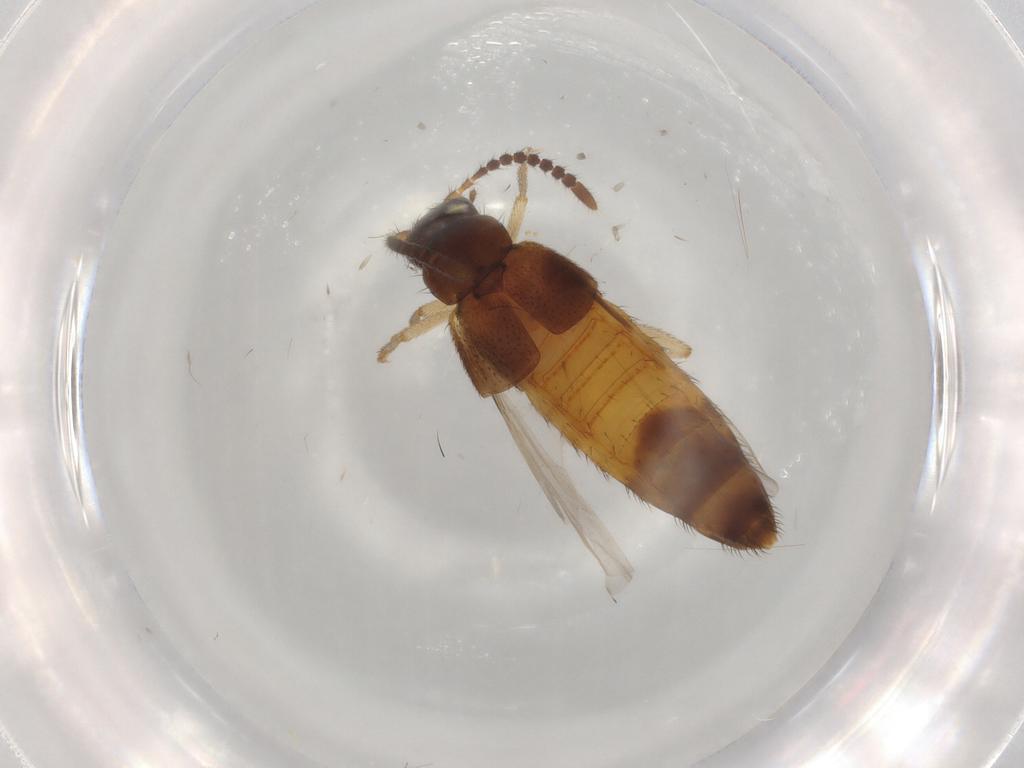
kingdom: Animalia
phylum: Arthropoda
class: Insecta
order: Coleoptera
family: Staphylinidae
